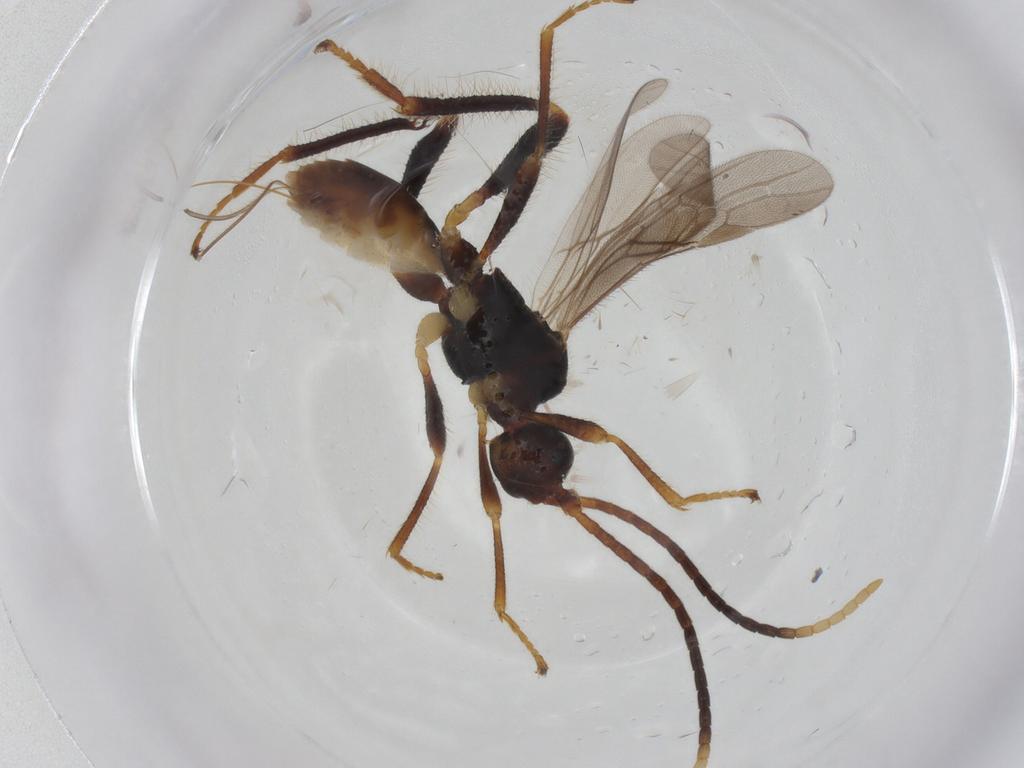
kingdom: Animalia
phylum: Arthropoda
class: Insecta
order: Hymenoptera
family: Braconidae
